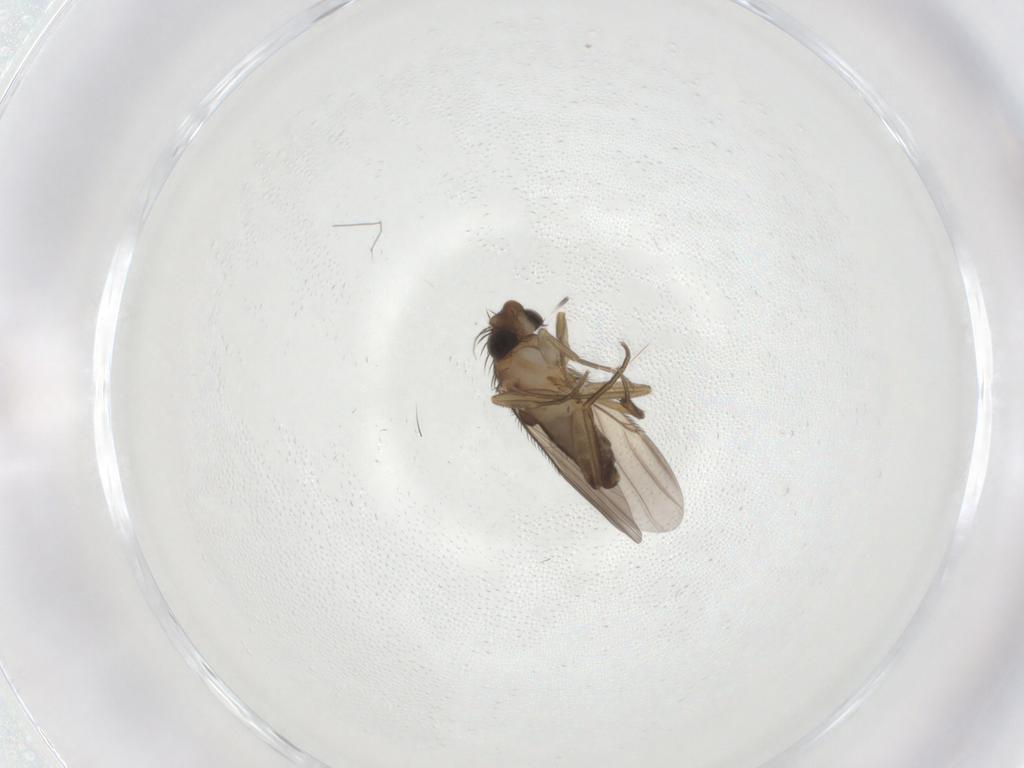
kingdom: Animalia
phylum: Arthropoda
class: Insecta
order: Diptera
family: Phoridae
